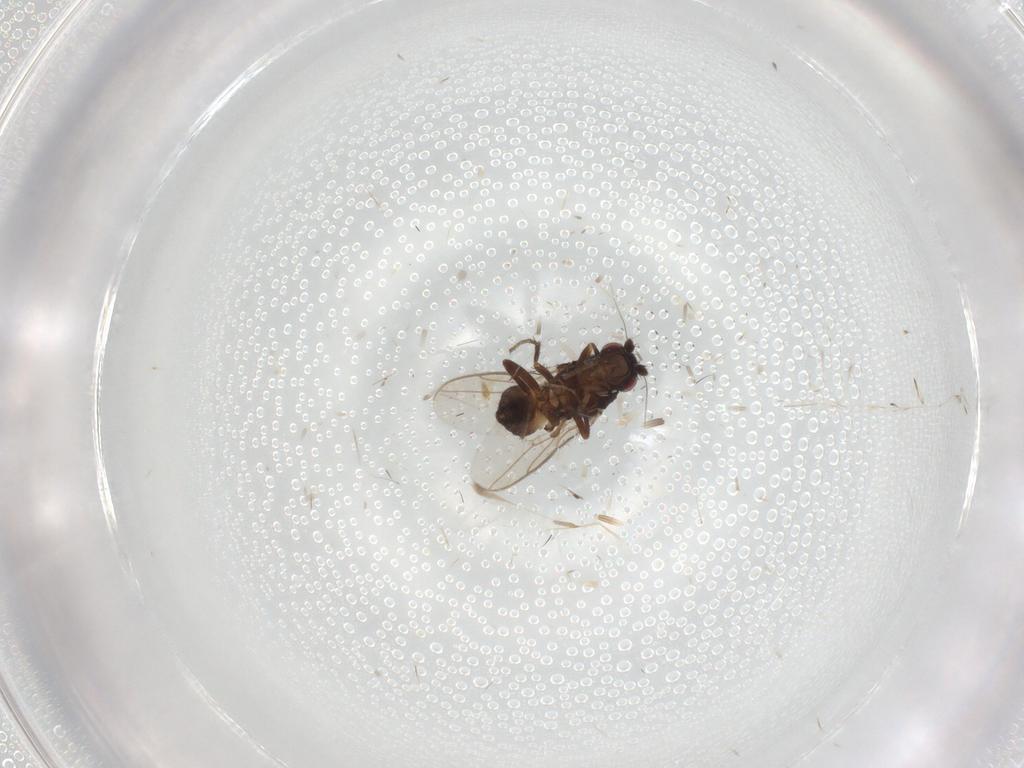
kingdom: Animalia
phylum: Arthropoda
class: Insecta
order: Diptera
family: Sphaeroceridae
